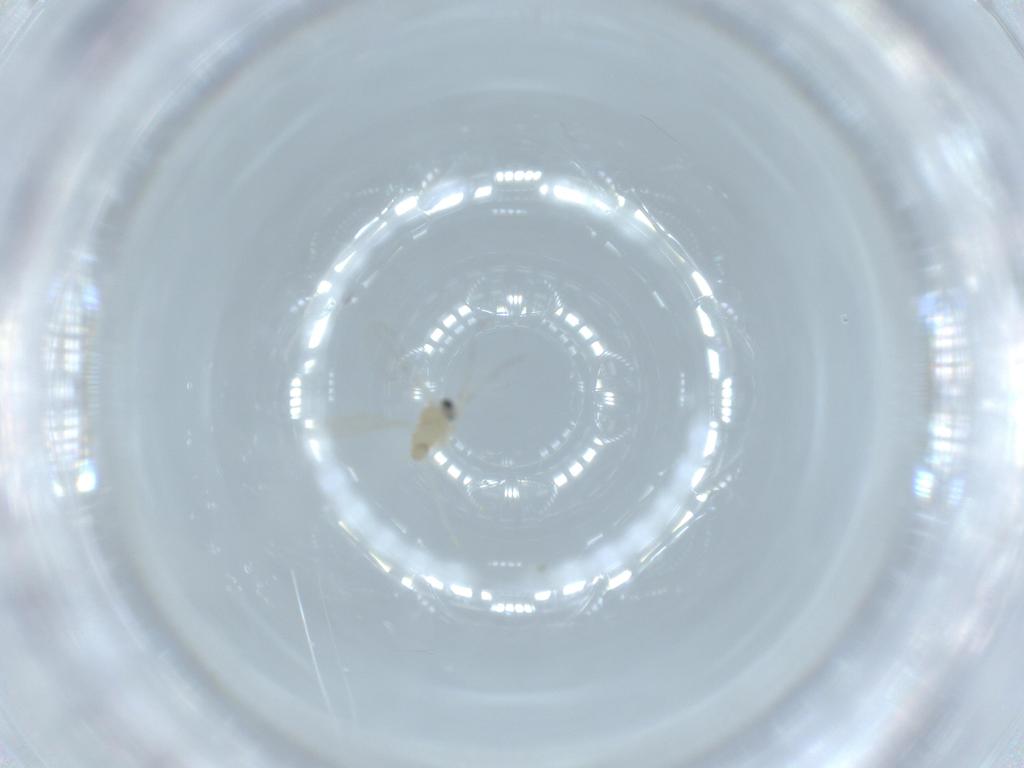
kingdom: Animalia
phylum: Arthropoda
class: Insecta
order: Diptera
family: Cecidomyiidae
